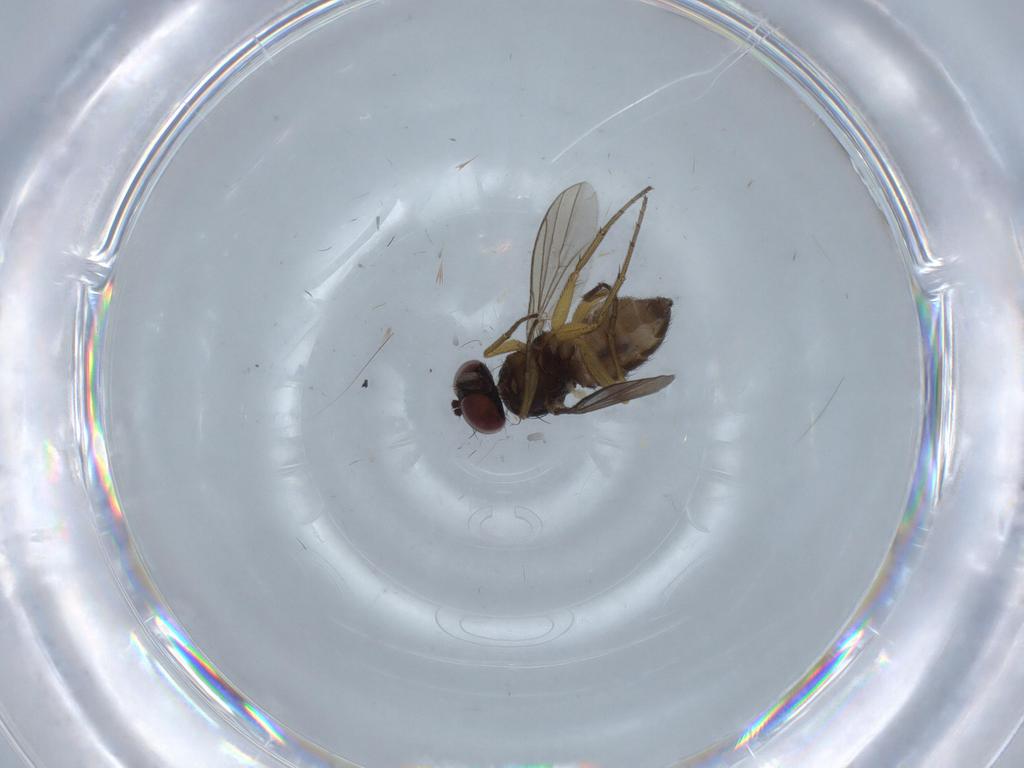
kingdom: Animalia
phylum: Arthropoda
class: Insecta
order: Diptera
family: Dolichopodidae
